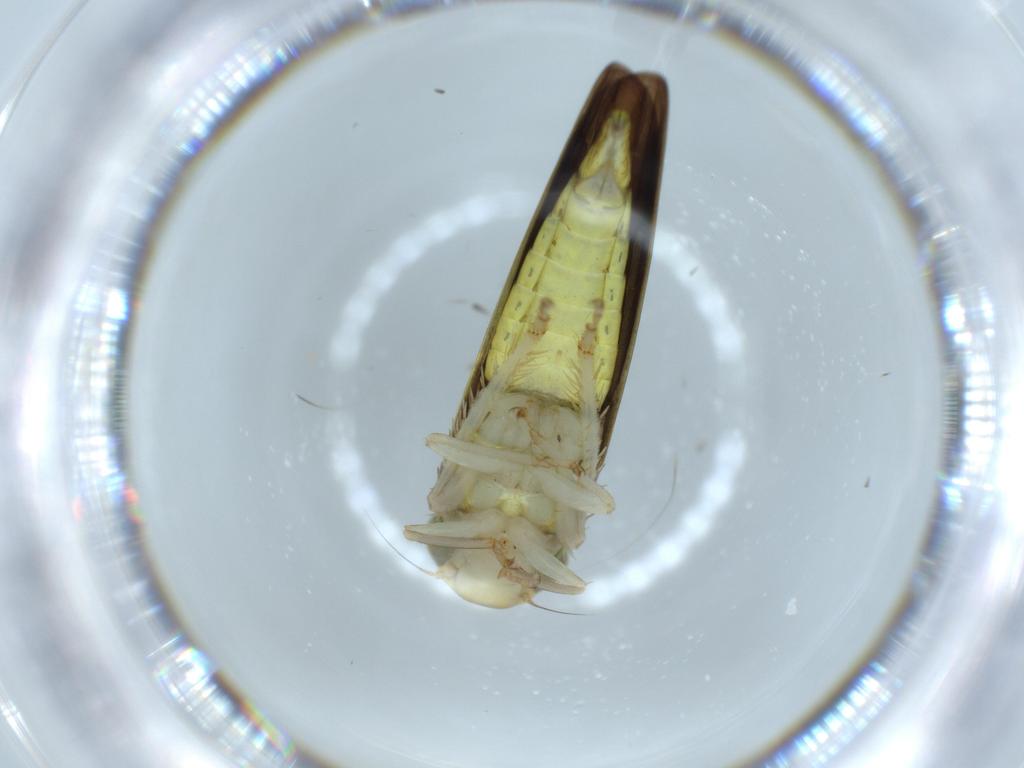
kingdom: Animalia
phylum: Arthropoda
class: Insecta
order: Hemiptera
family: Cicadellidae
